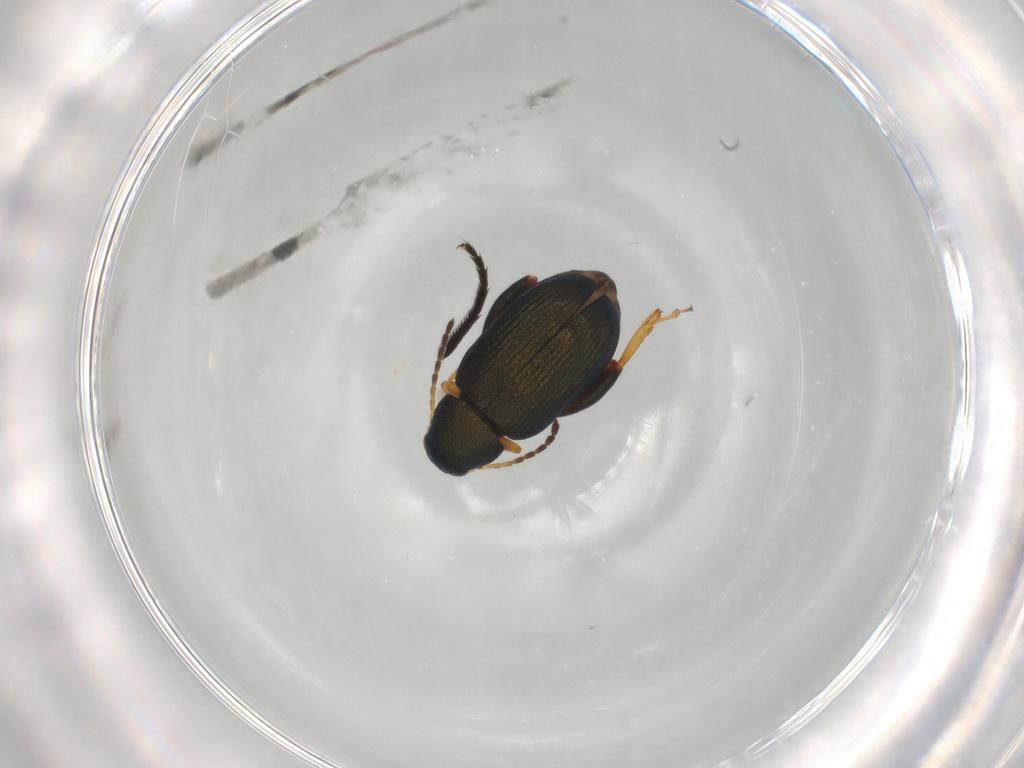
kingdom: Animalia
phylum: Arthropoda
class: Insecta
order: Coleoptera
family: Chrysomelidae
